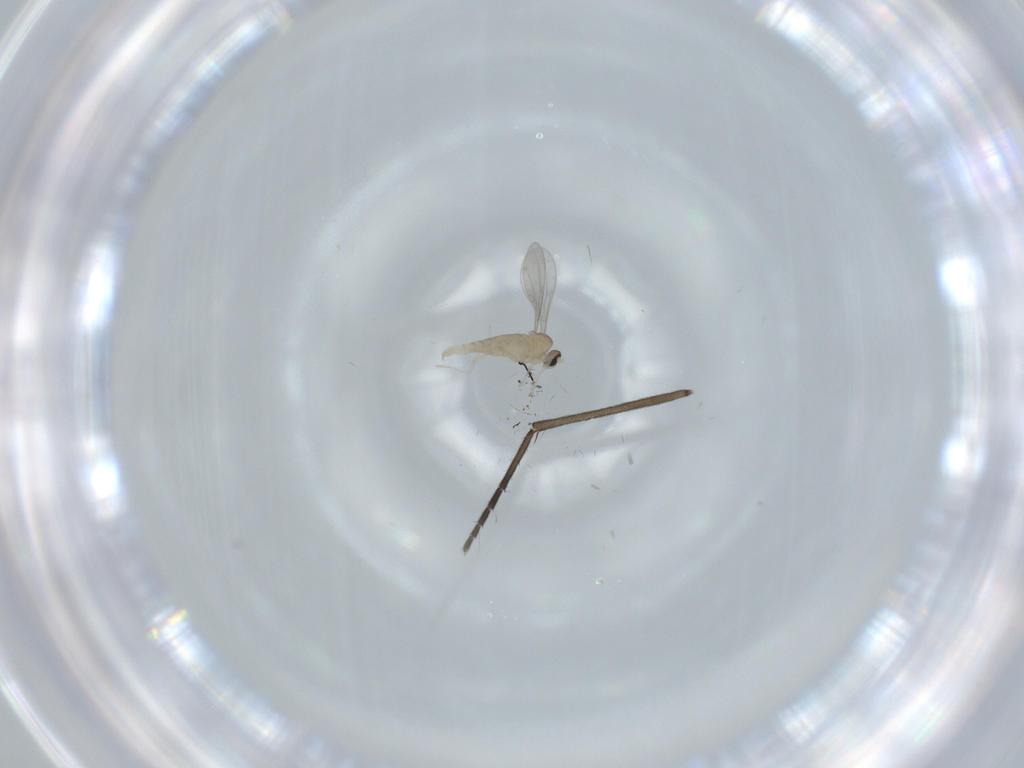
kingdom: Animalia
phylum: Arthropoda
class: Insecta
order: Diptera
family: Cecidomyiidae
